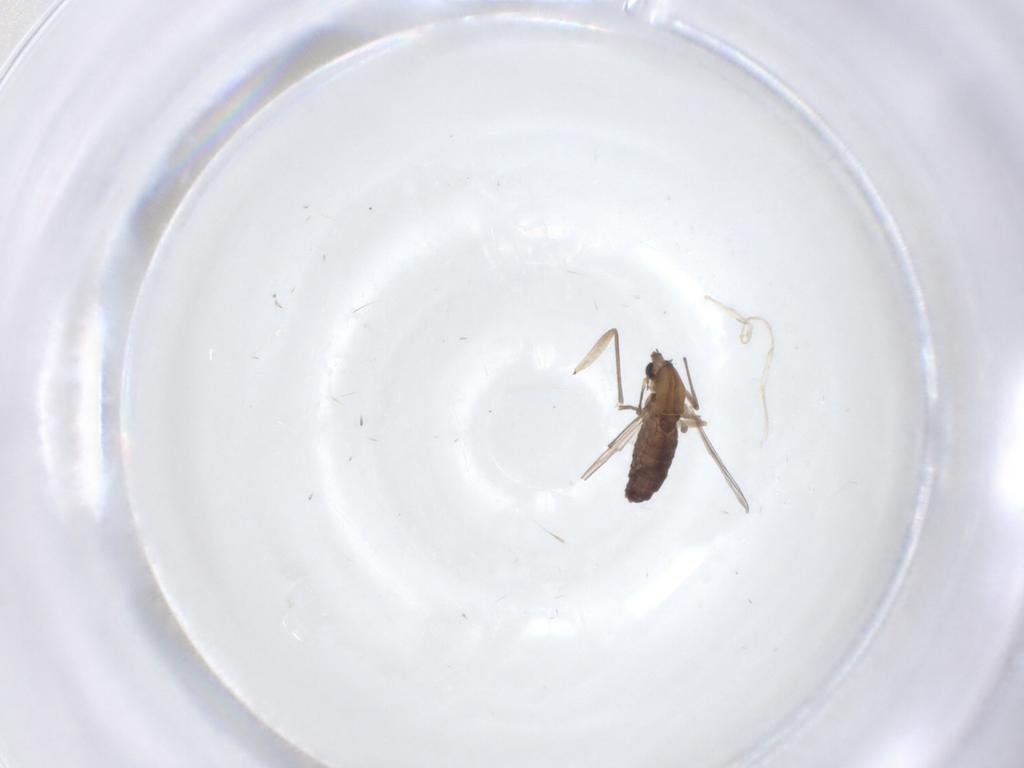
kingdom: Animalia
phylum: Arthropoda
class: Insecta
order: Diptera
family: Chironomidae
